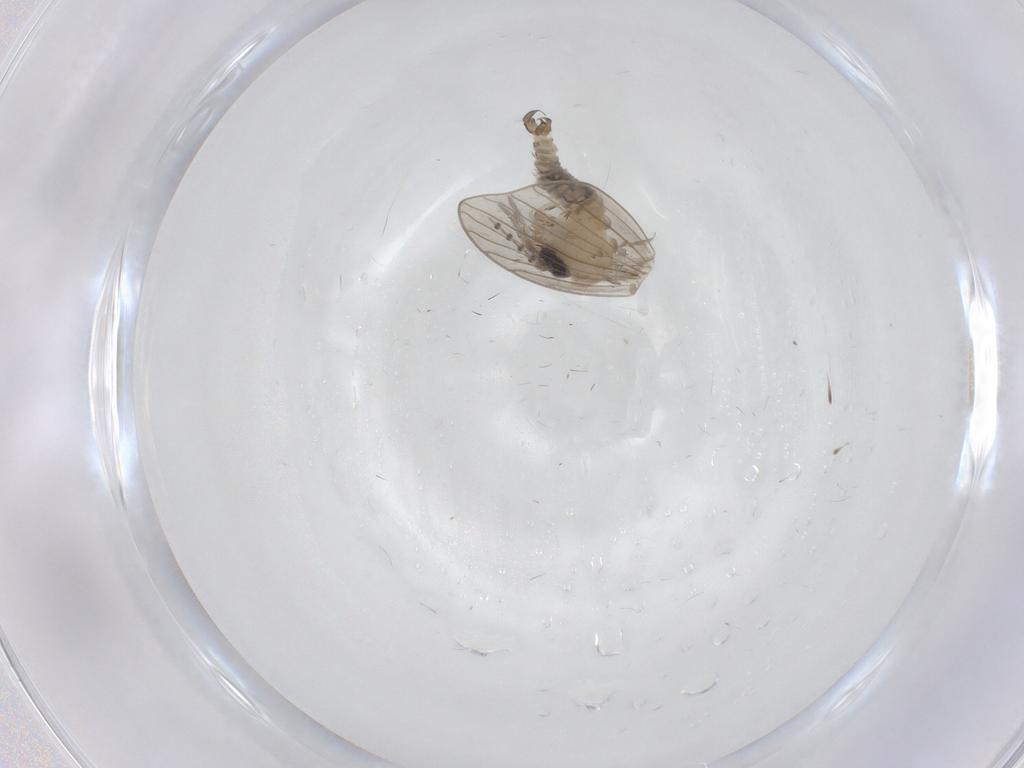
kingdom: Animalia
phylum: Arthropoda
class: Insecta
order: Diptera
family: Psychodidae
